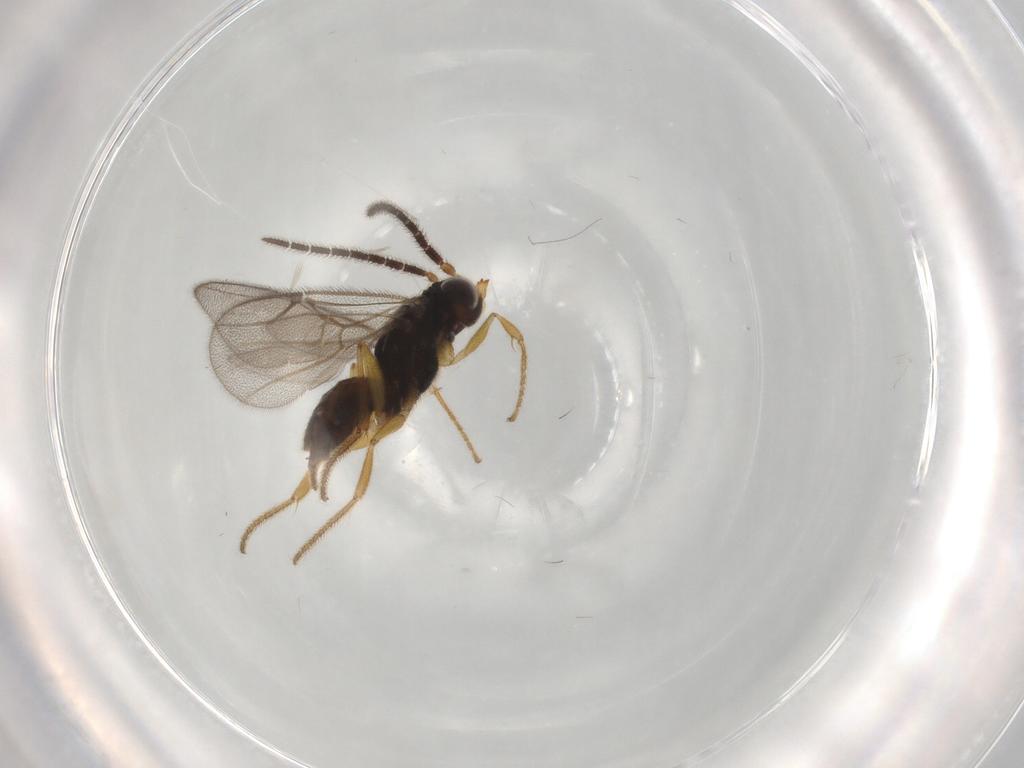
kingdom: Animalia
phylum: Arthropoda
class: Insecta
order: Hymenoptera
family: Dryinidae
